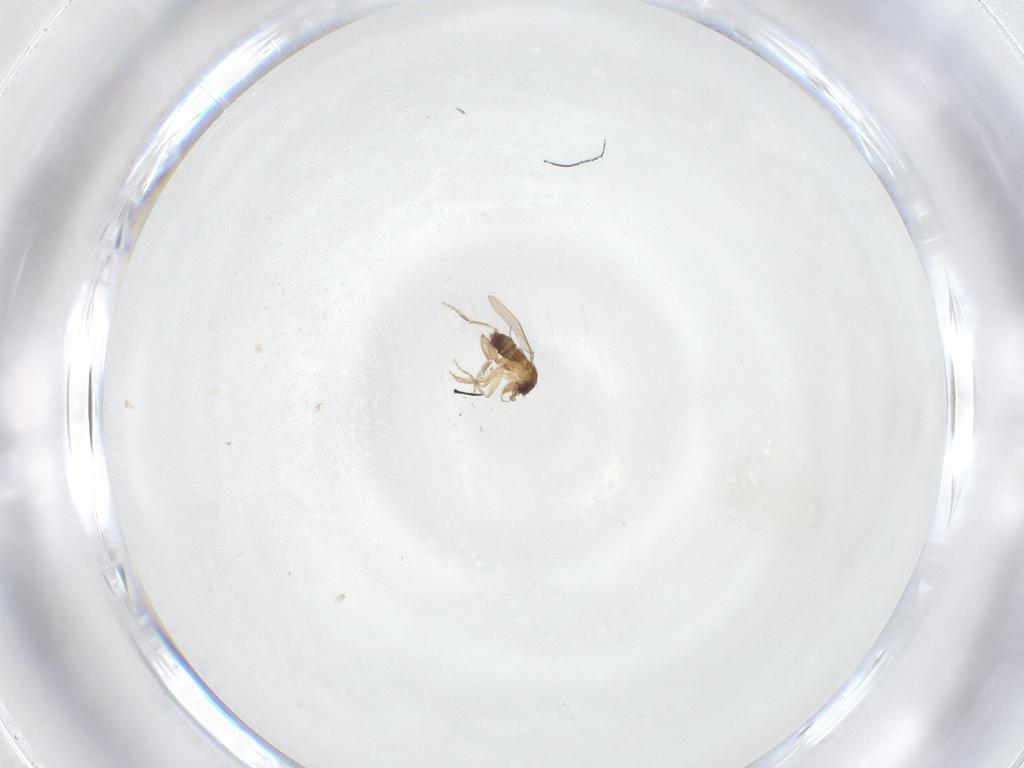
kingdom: Animalia
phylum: Arthropoda
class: Insecta
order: Diptera
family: Phoridae
